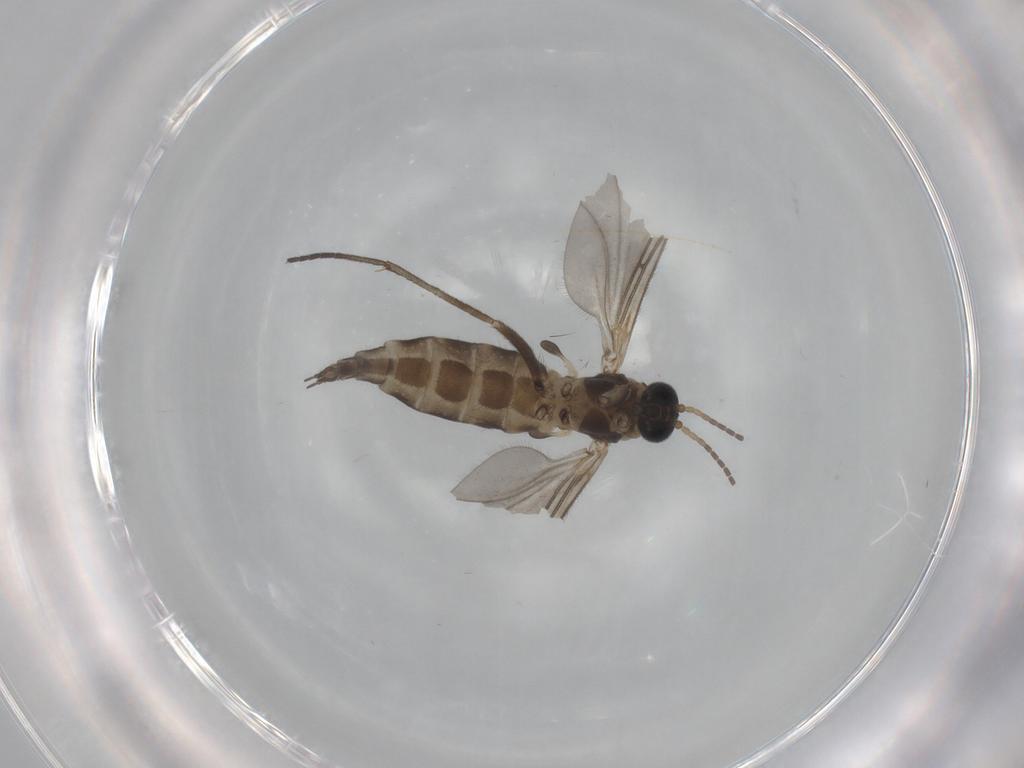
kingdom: Animalia
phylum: Arthropoda
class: Insecta
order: Diptera
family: Sciaridae
